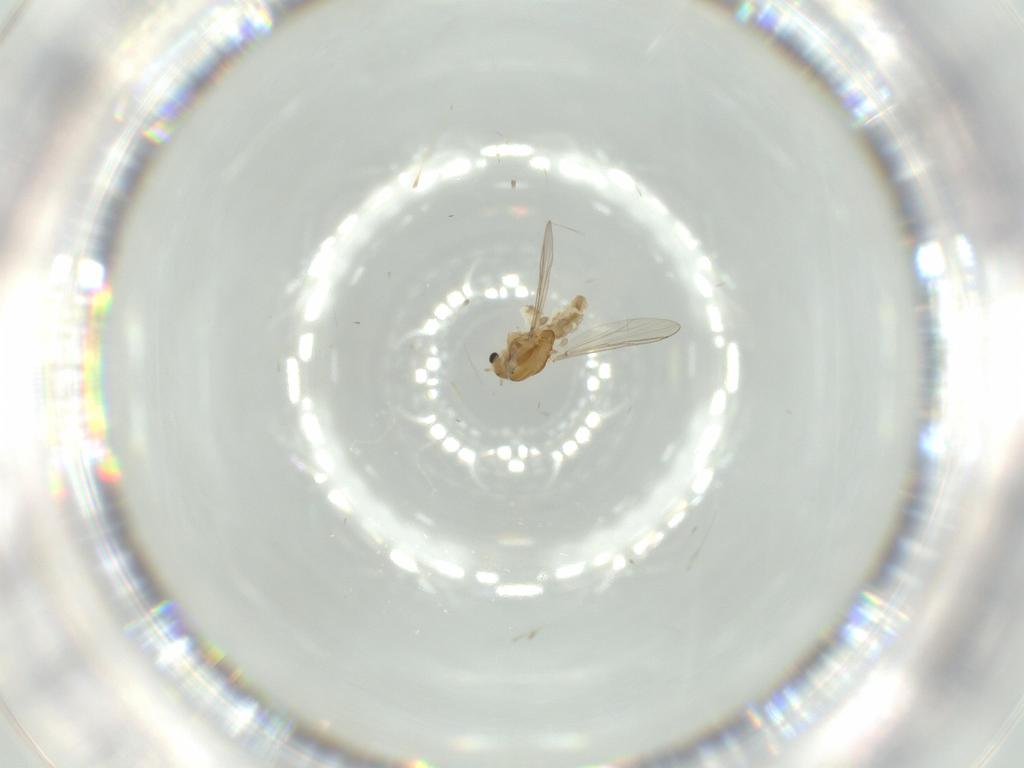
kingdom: Animalia
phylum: Arthropoda
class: Insecta
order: Diptera
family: Chironomidae
